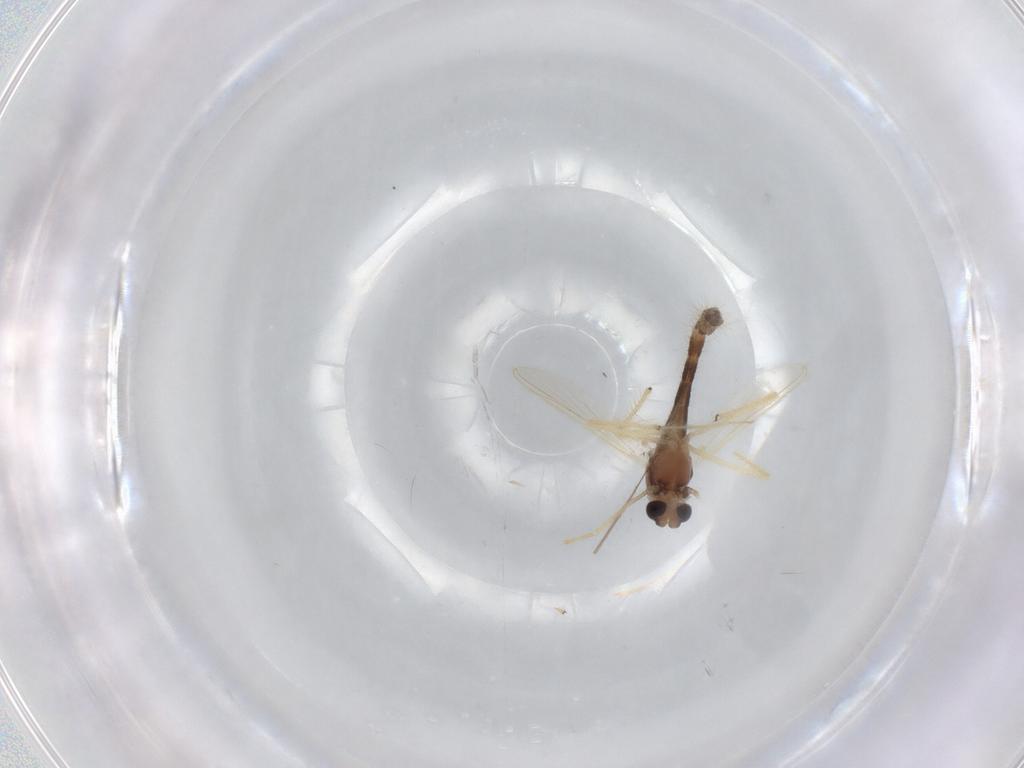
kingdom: Animalia
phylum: Arthropoda
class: Insecta
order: Diptera
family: Chironomidae
